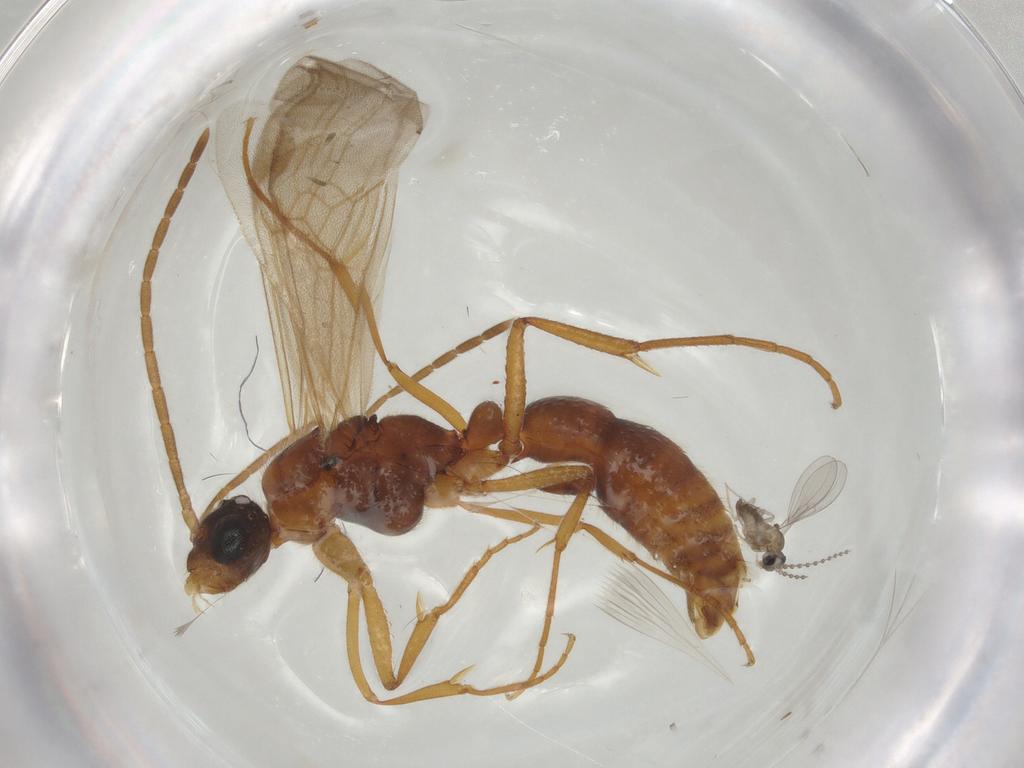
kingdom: Animalia
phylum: Arthropoda
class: Insecta
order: Diptera
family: Cecidomyiidae
